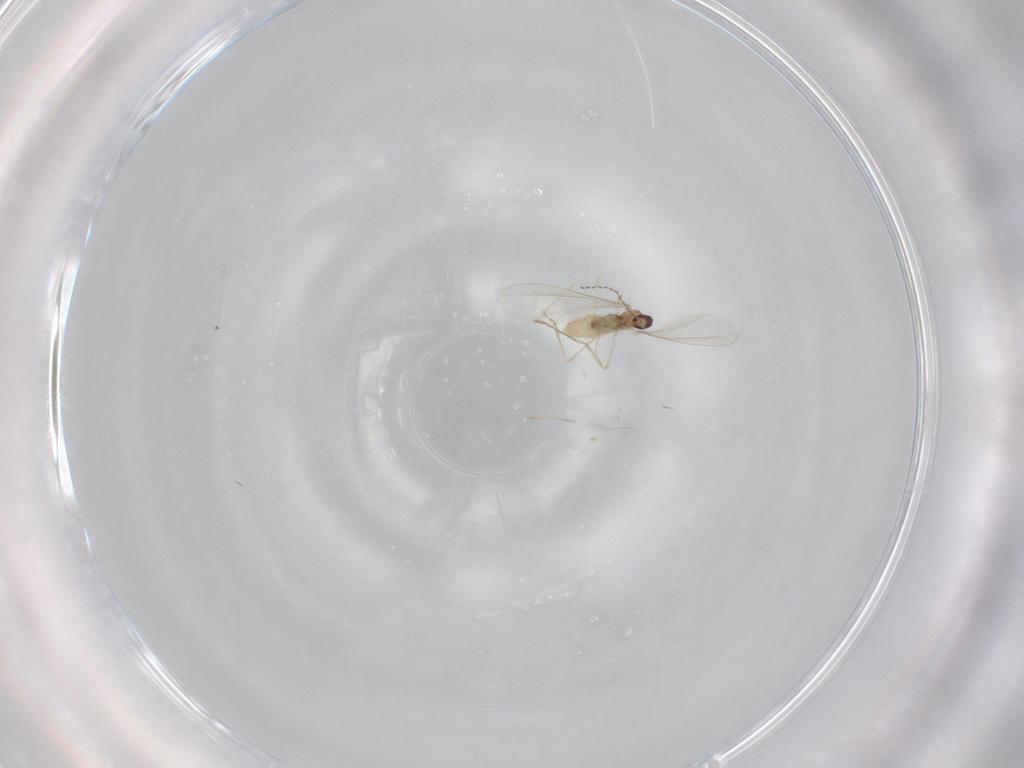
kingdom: Animalia
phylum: Arthropoda
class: Insecta
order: Diptera
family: Cecidomyiidae
